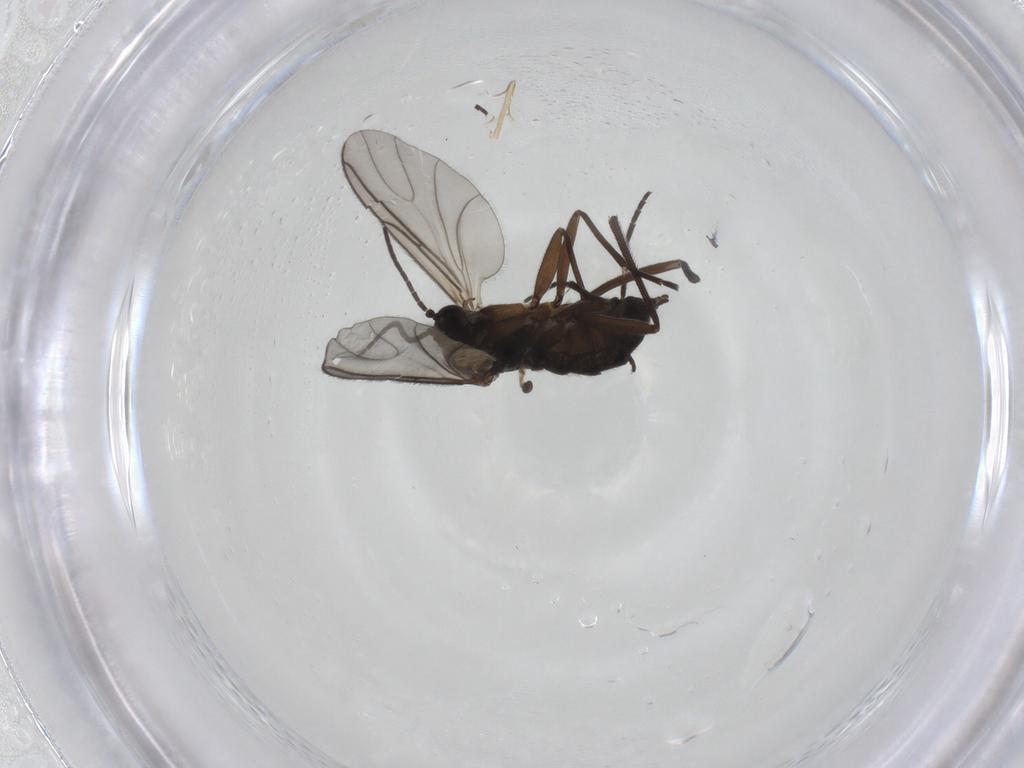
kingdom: Animalia
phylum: Arthropoda
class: Insecta
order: Diptera
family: Sciaridae
